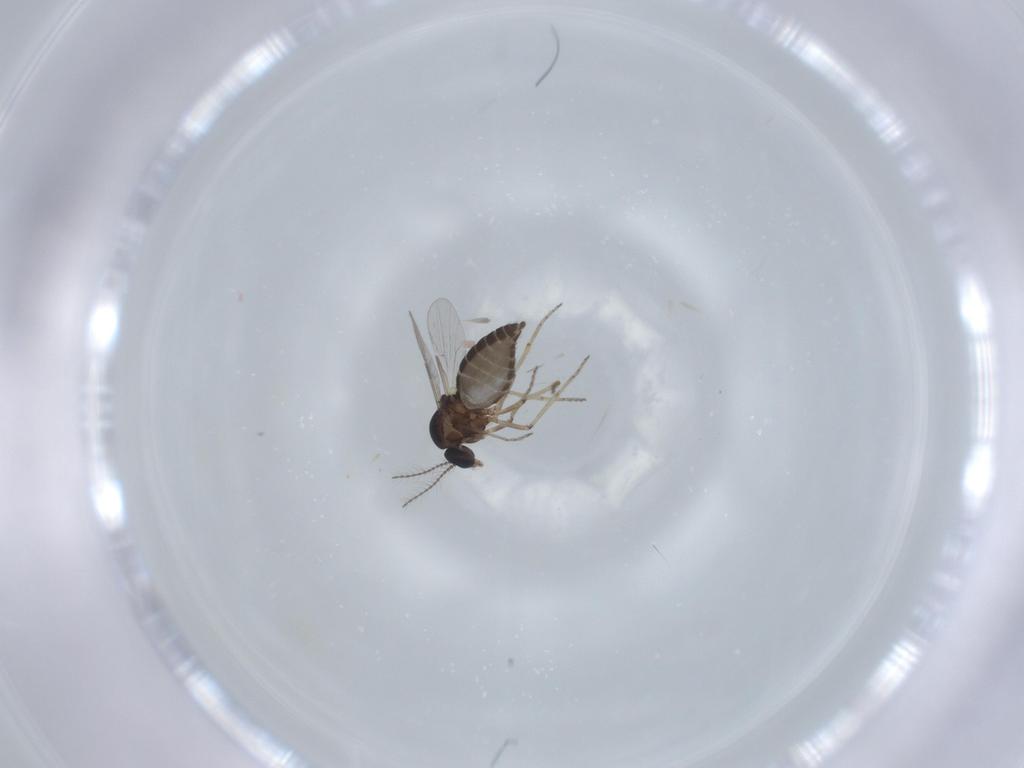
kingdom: Animalia
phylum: Arthropoda
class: Insecta
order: Diptera
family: Ceratopogonidae
